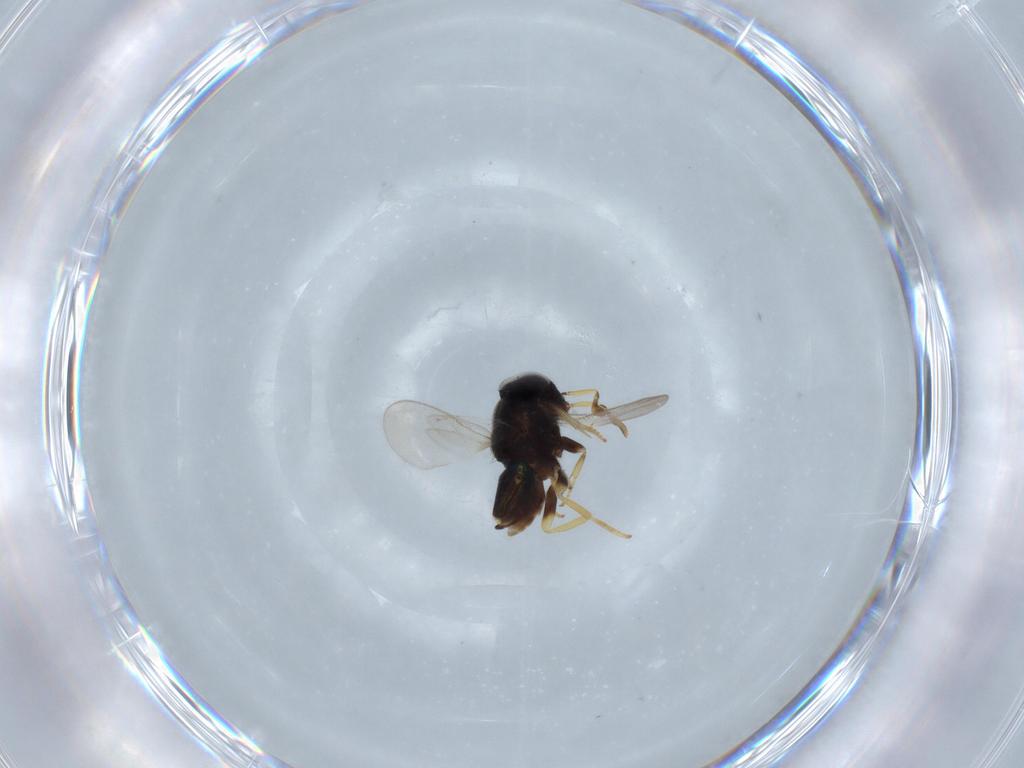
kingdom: Animalia
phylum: Arthropoda
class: Insecta
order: Hymenoptera
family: Encyrtidae
